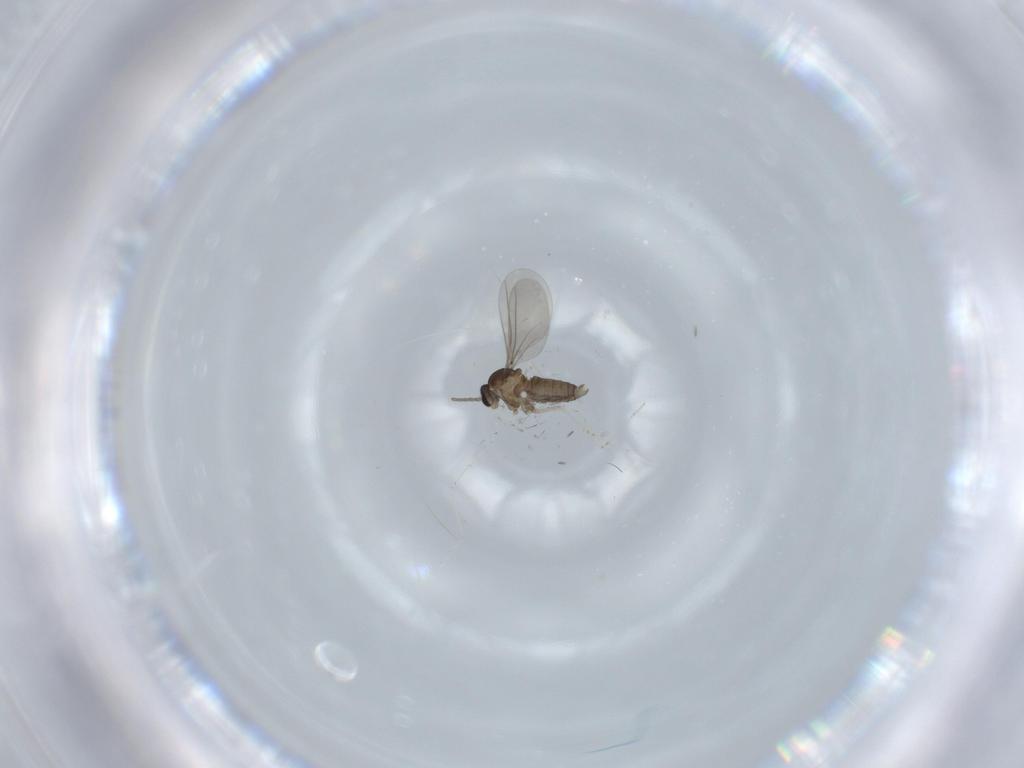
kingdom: Animalia
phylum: Arthropoda
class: Insecta
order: Diptera
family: Cecidomyiidae
